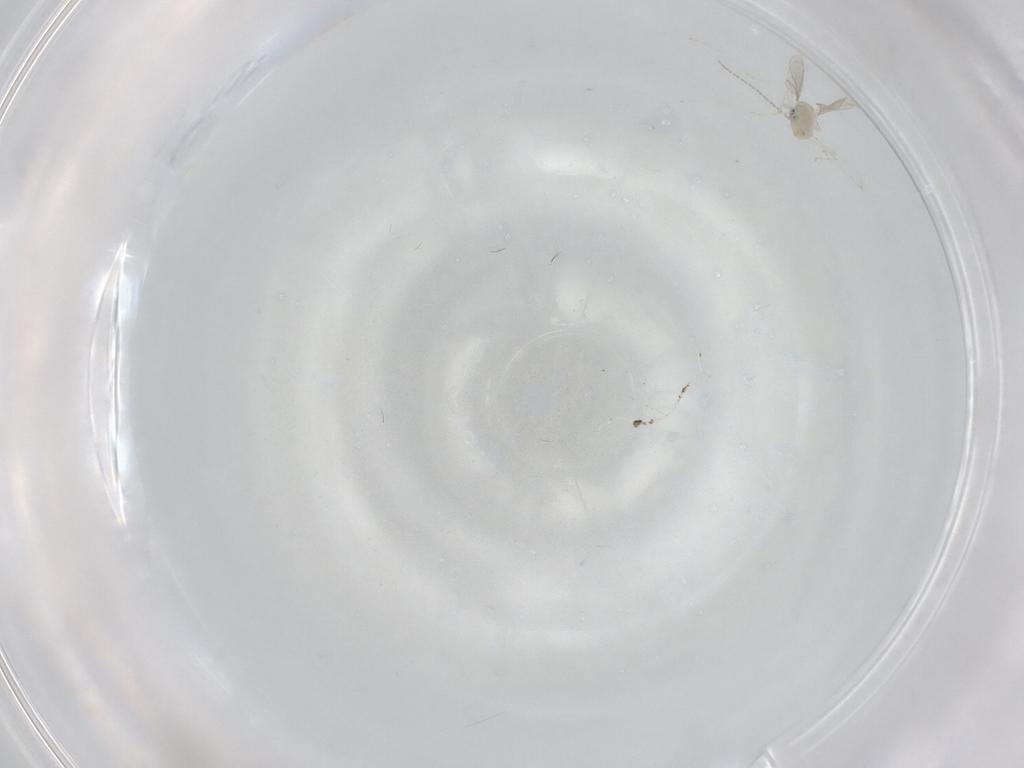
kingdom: Animalia
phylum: Arthropoda
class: Insecta
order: Diptera
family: Cecidomyiidae
